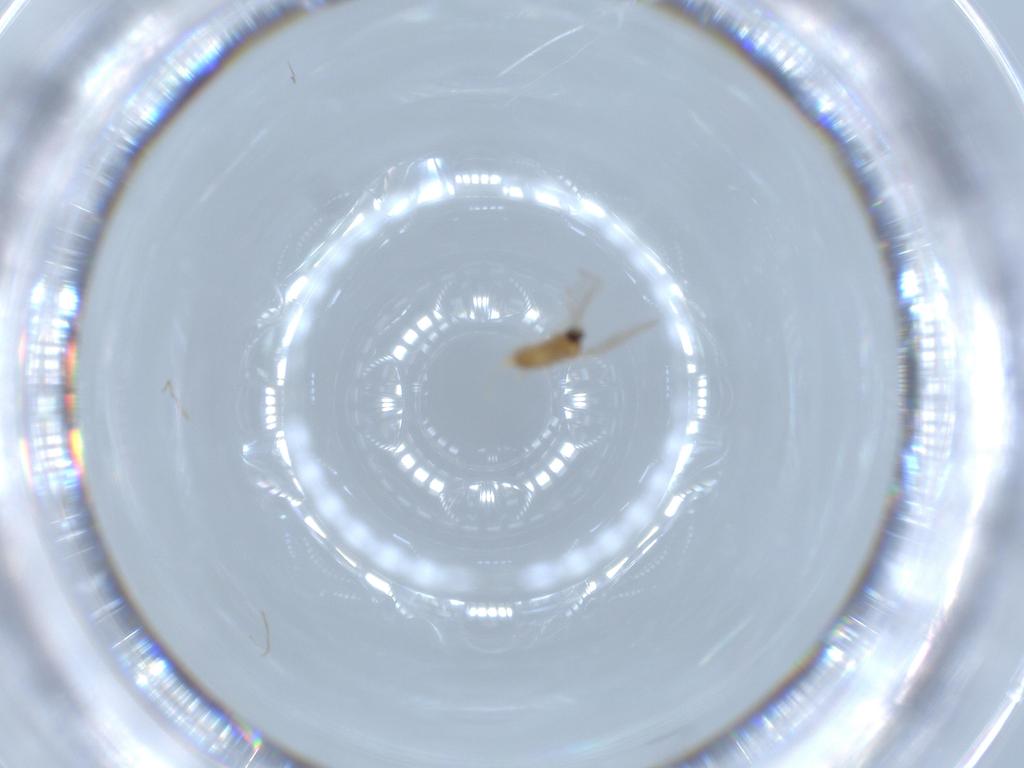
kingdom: Animalia
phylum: Arthropoda
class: Insecta
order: Diptera
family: Cecidomyiidae
